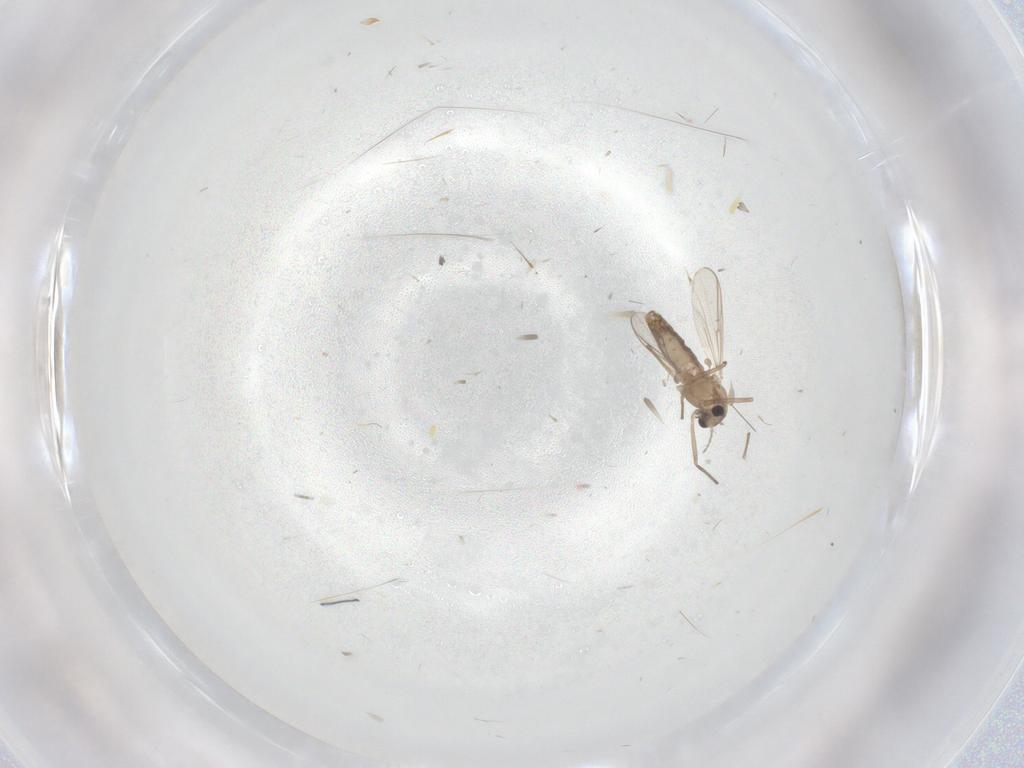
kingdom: Animalia
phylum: Arthropoda
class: Insecta
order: Diptera
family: Chironomidae
